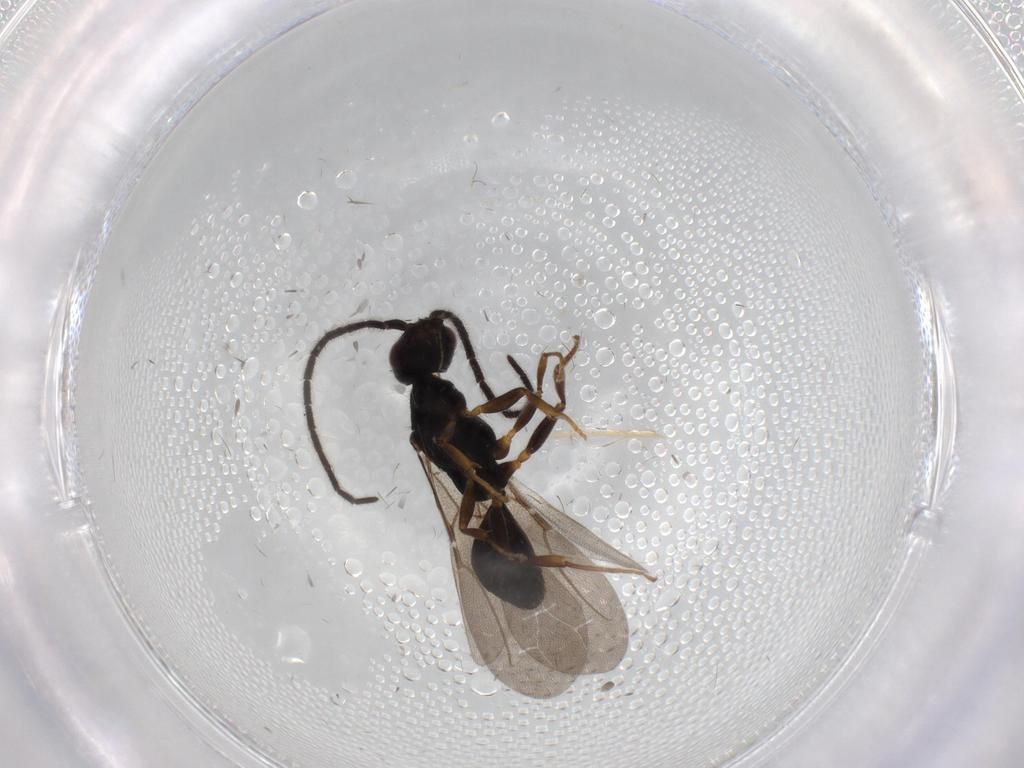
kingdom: Animalia
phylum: Arthropoda
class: Insecta
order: Hymenoptera
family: Bethylidae
